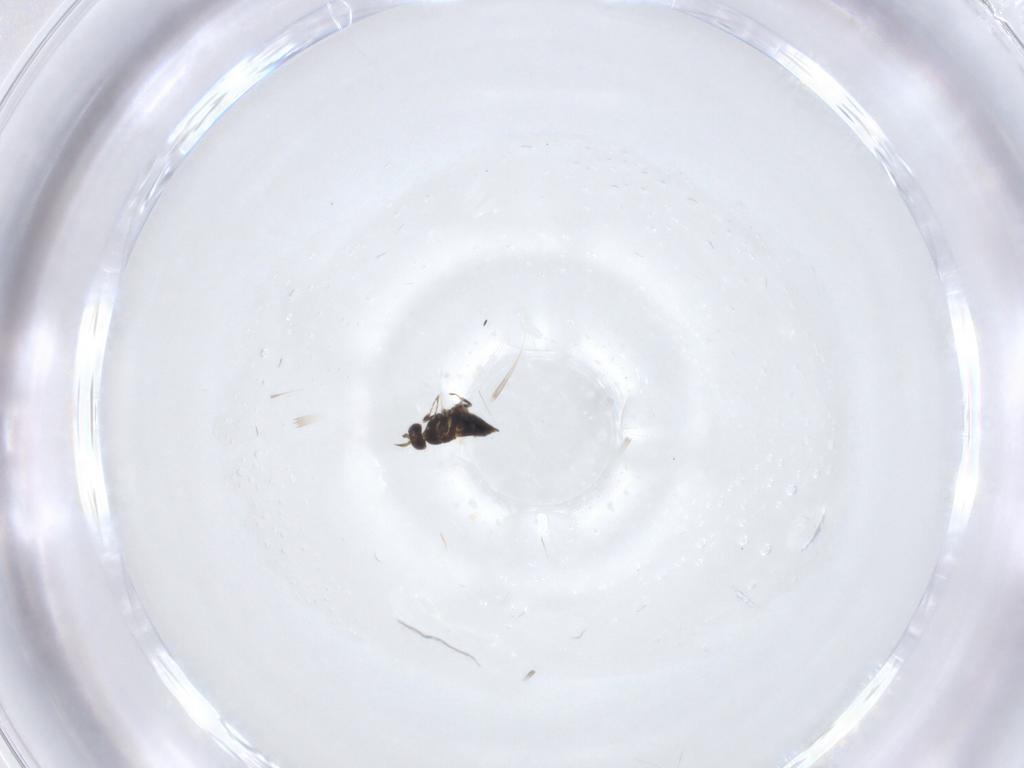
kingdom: Animalia
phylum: Arthropoda
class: Insecta
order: Hymenoptera
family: Trichogrammatidae
